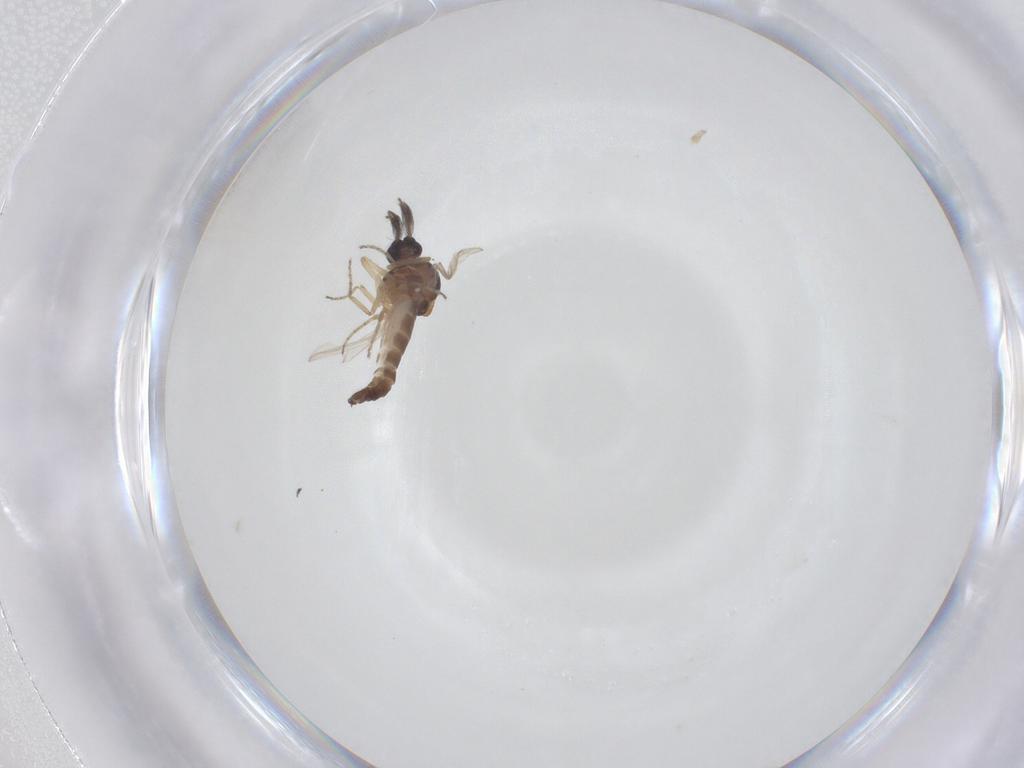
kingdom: Animalia
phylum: Arthropoda
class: Insecta
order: Diptera
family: Ceratopogonidae
